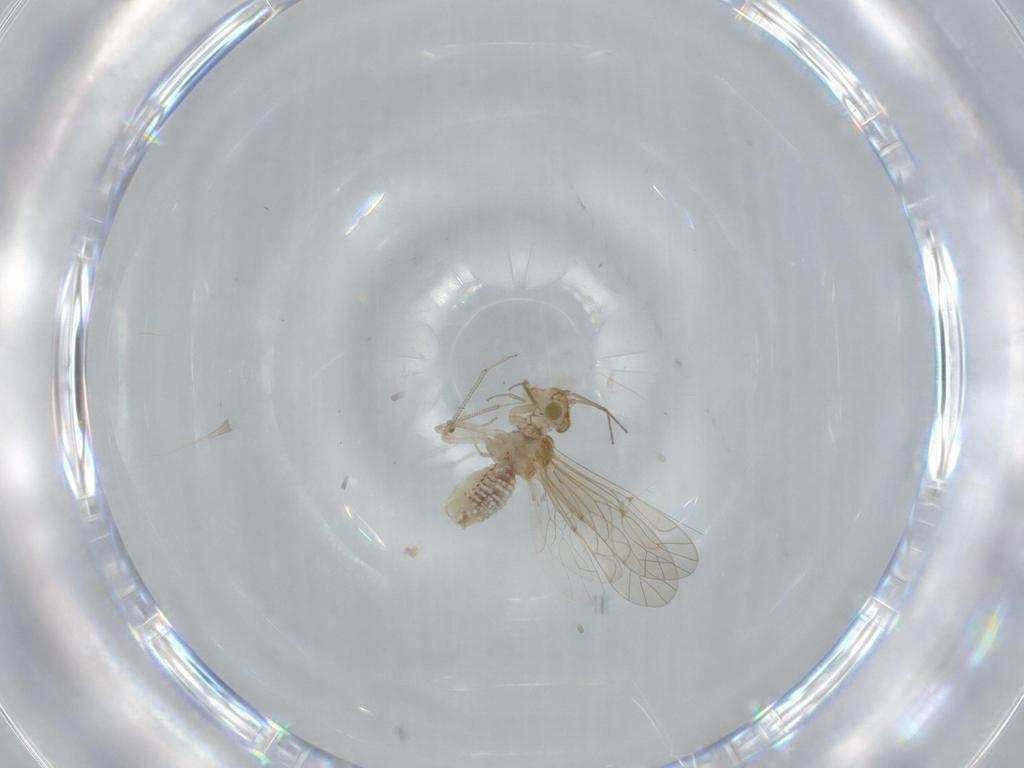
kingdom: Animalia
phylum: Arthropoda
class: Insecta
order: Psocodea
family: Lachesillidae
